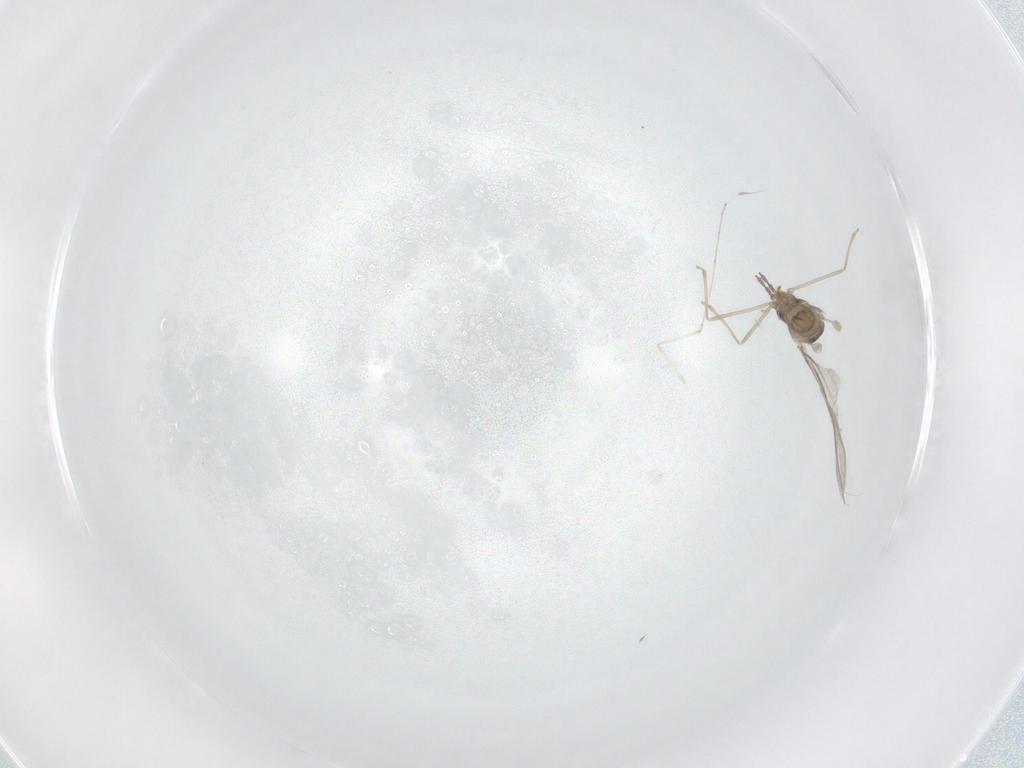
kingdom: Animalia
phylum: Arthropoda
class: Insecta
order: Diptera
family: Cecidomyiidae
